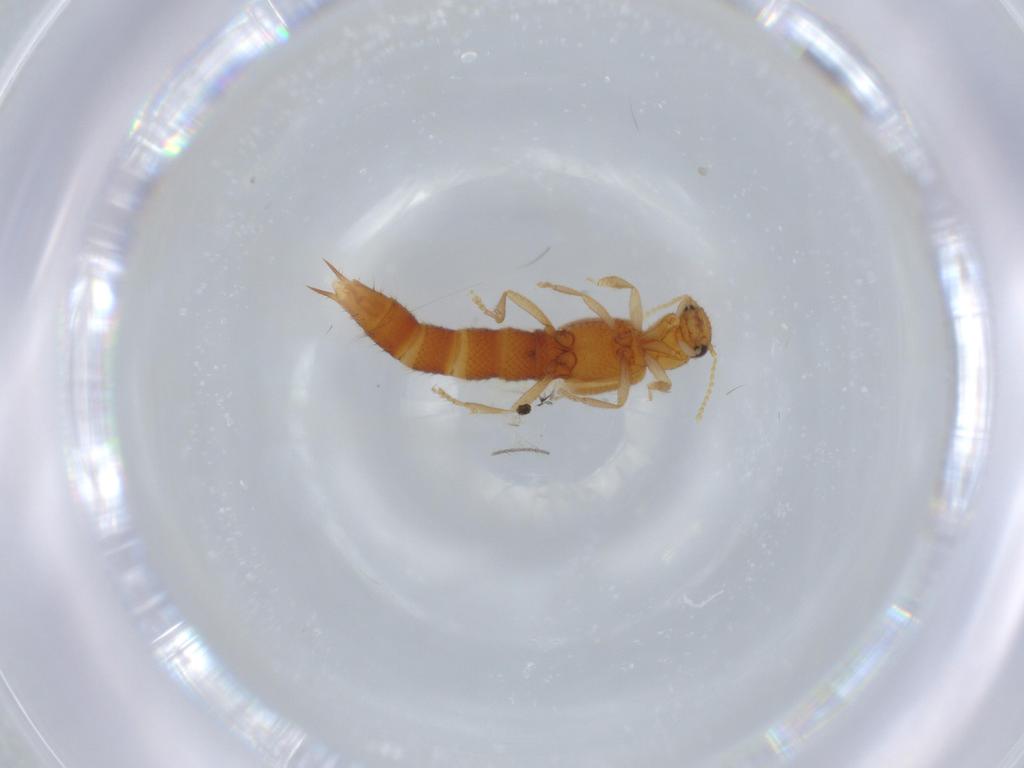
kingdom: Animalia
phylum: Arthropoda
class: Insecta
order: Coleoptera
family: Staphylinidae
